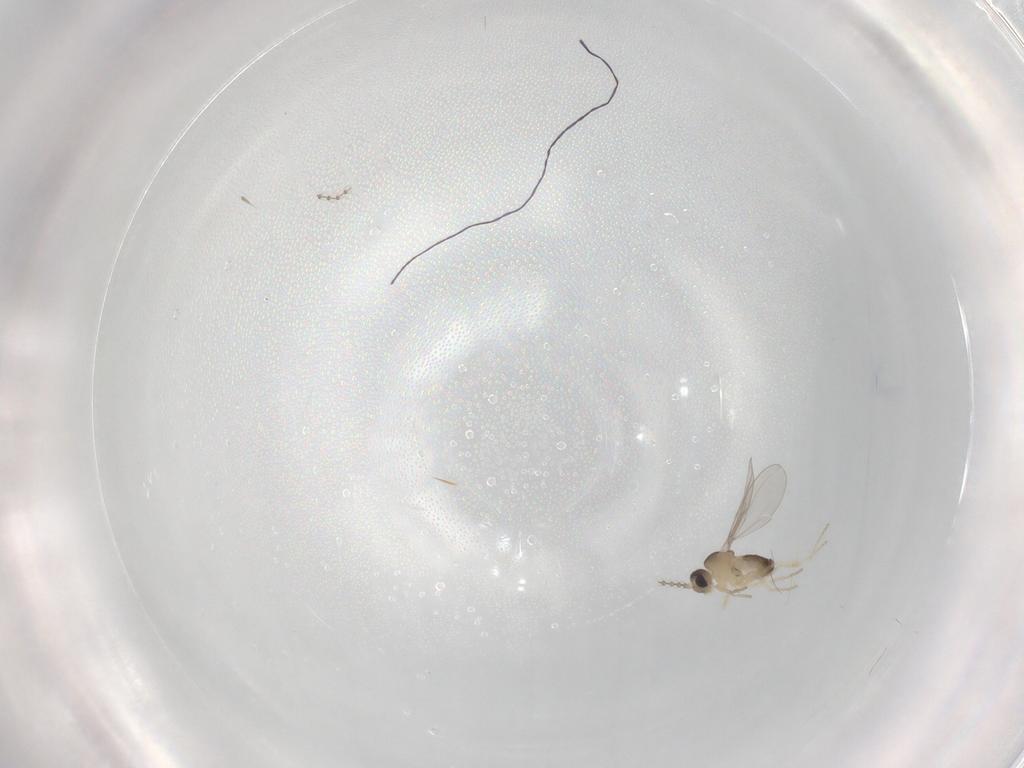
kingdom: Animalia
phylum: Arthropoda
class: Insecta
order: Diptera
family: Cecidomyiidae
